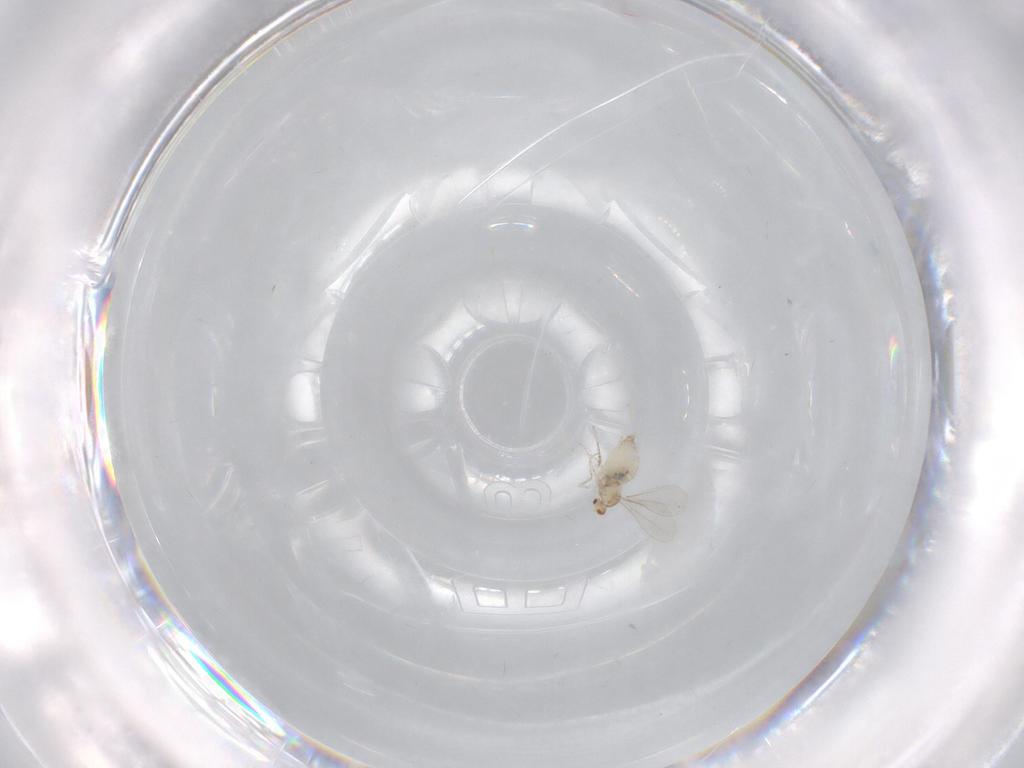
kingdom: Animalia
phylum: Arthropoda
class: Insecta
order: Diptera
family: Cecidomyiidae
